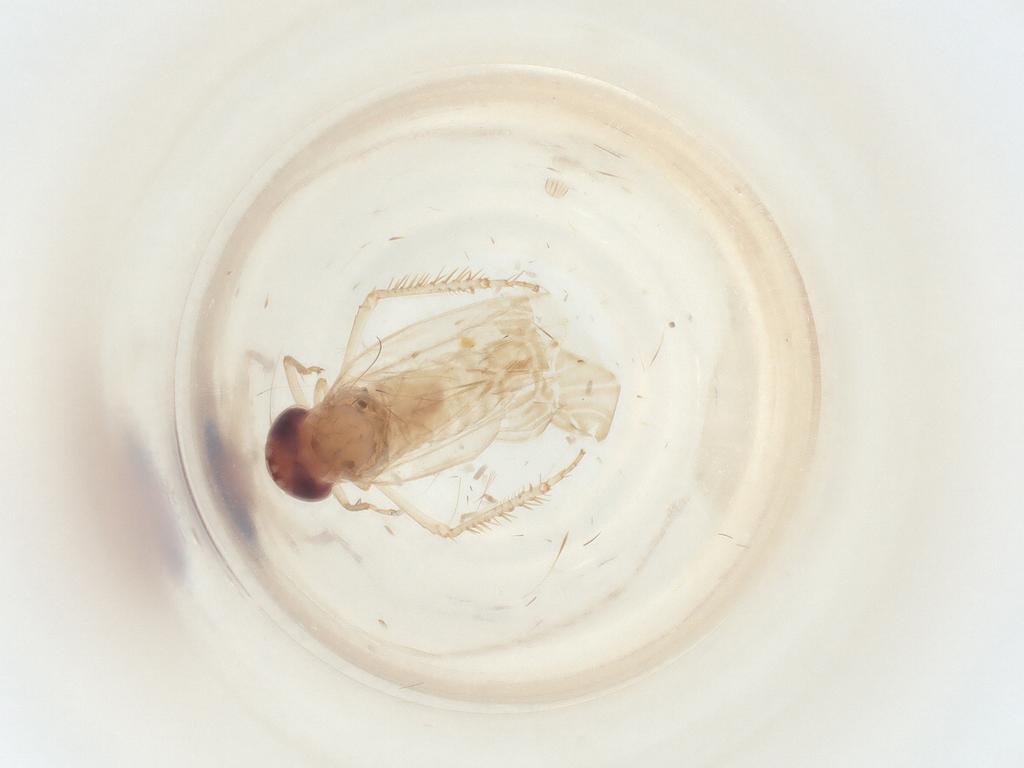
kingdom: Animalia
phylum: Arthropoda
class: Insecta
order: Hemiptera
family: Cicadellidae
